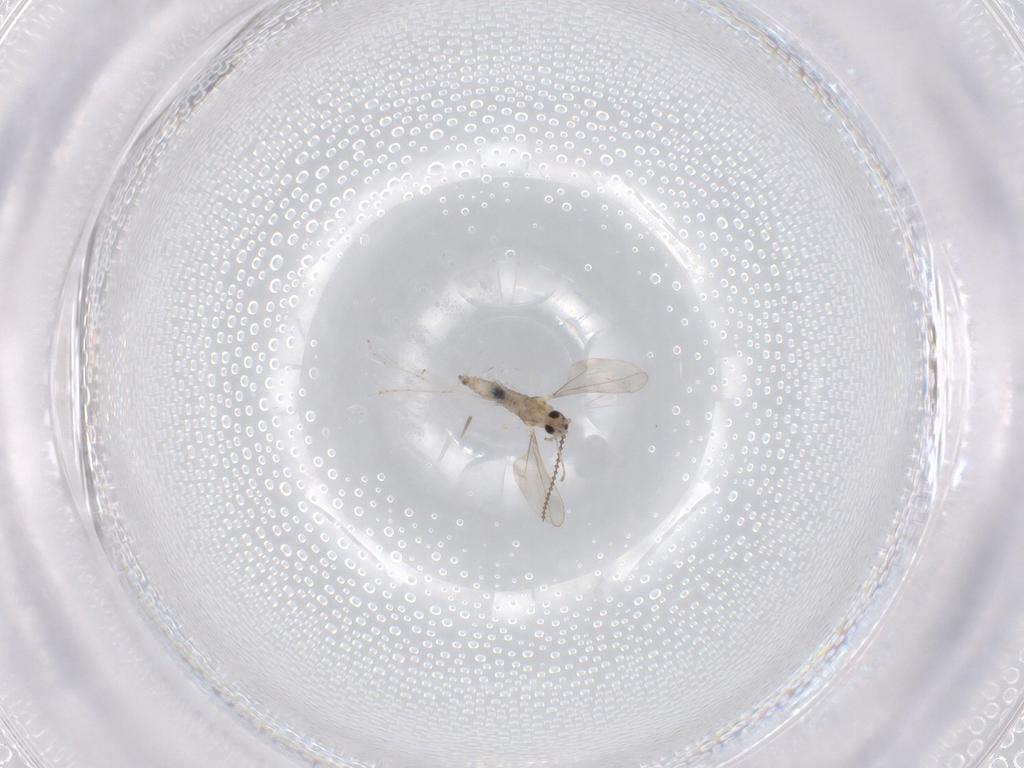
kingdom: Animalia
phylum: Arthropoda
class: Insecta
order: Diptera
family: Cecidomyiidae
